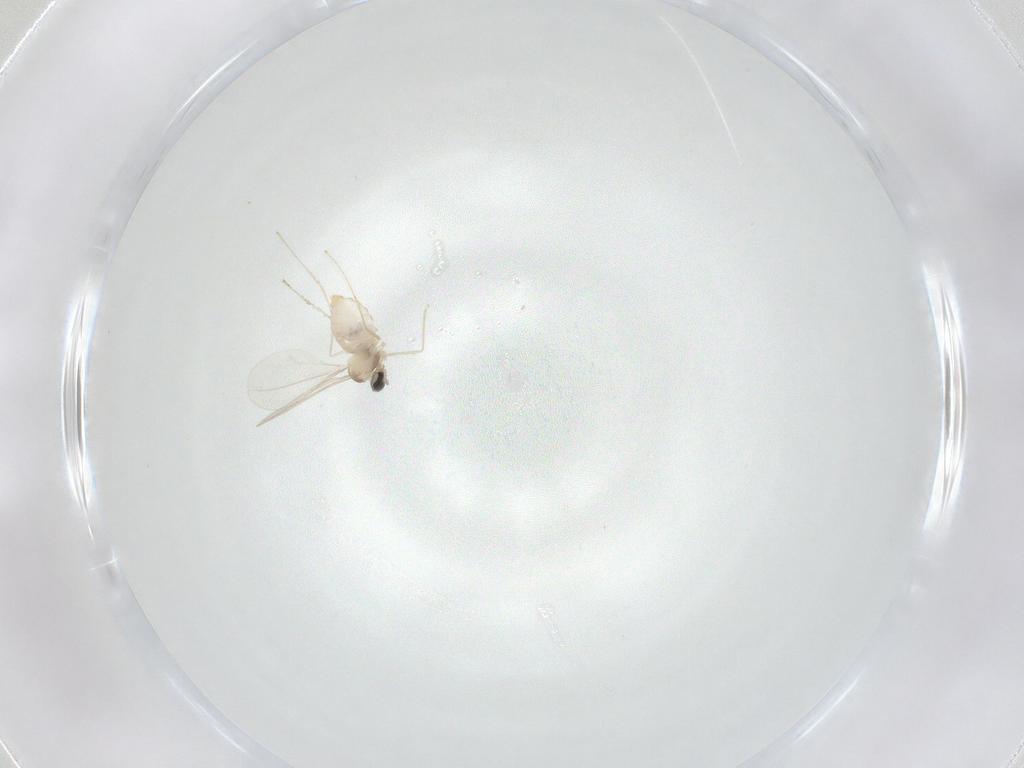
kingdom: Animalia
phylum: Arthropoda
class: Insecta
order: Diptera
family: Cecidomyiidae
